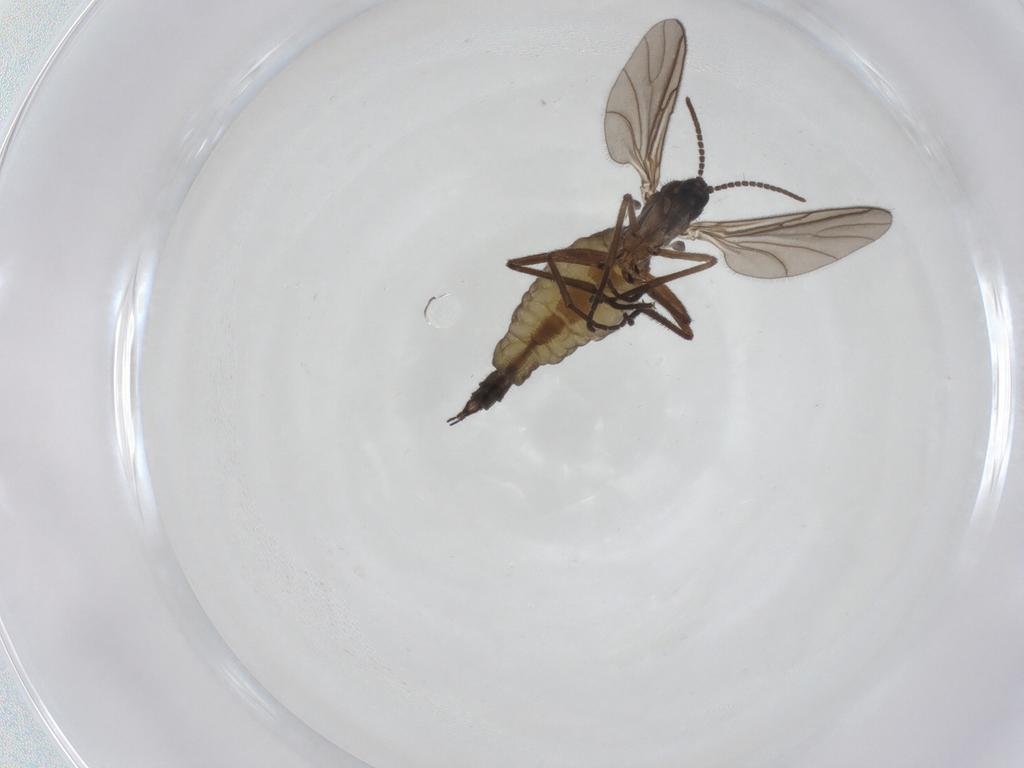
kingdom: Animalia
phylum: Arthropoda
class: Insecta
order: Diptera
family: Sciaridae
